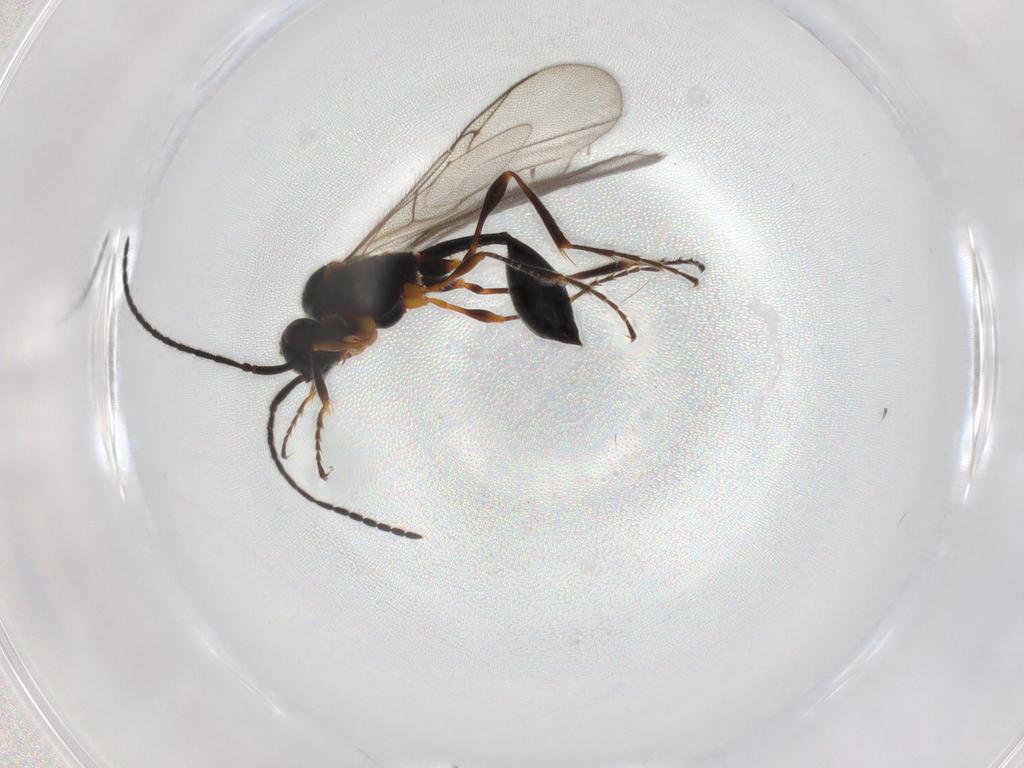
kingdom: Animalia
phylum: Arthropoda
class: Insecta
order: Hymenoptera
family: Diapriidae
